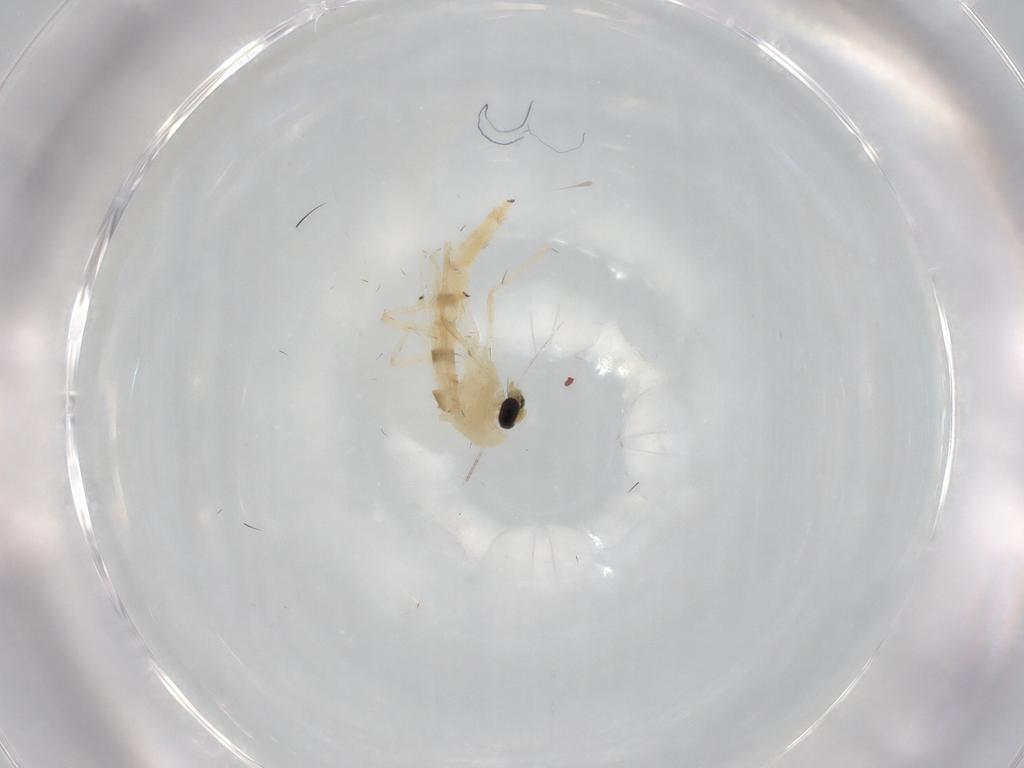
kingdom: Animalia
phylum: Arthropoda
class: Insecta
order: Diptera
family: Chironomidae
